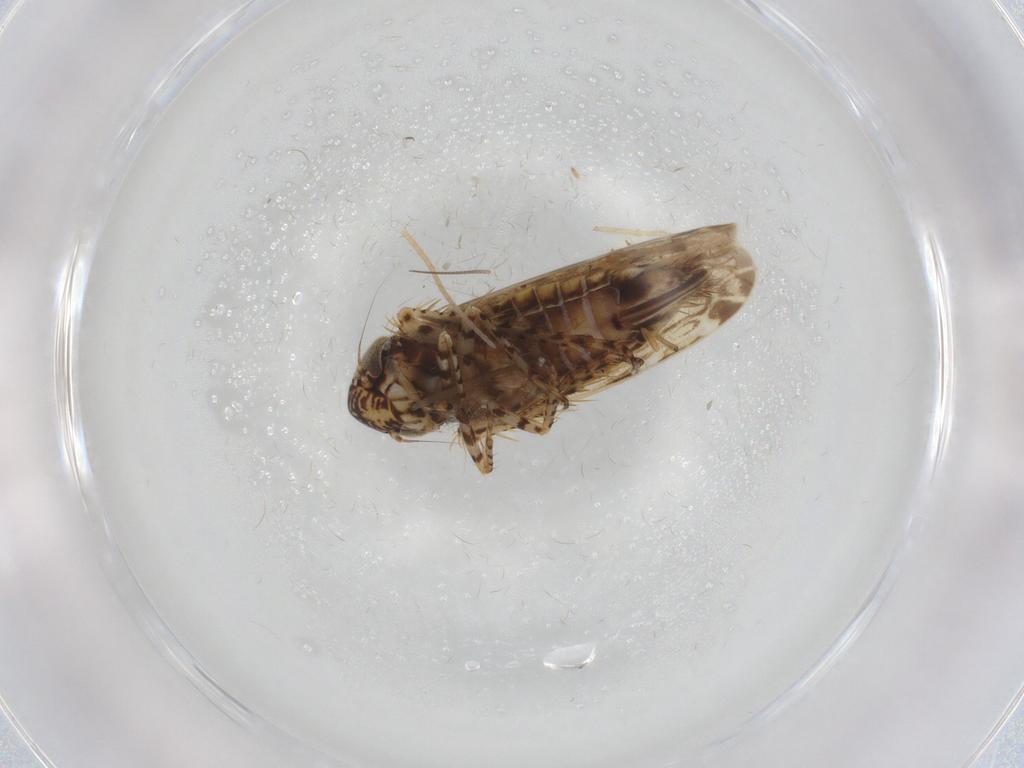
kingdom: Animalia
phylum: Arthropoda
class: Insecta
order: Hemiptera
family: Cicadellidae
